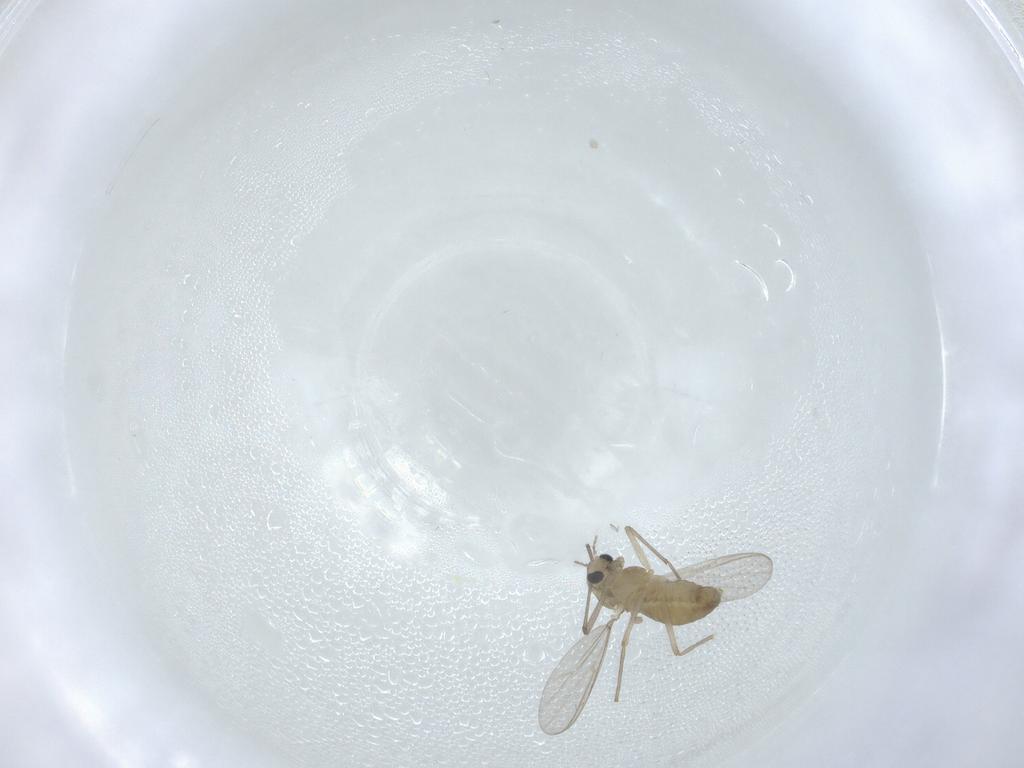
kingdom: Animalia
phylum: Arthropoda
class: Insecta
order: Diptera
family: Chironomidae
